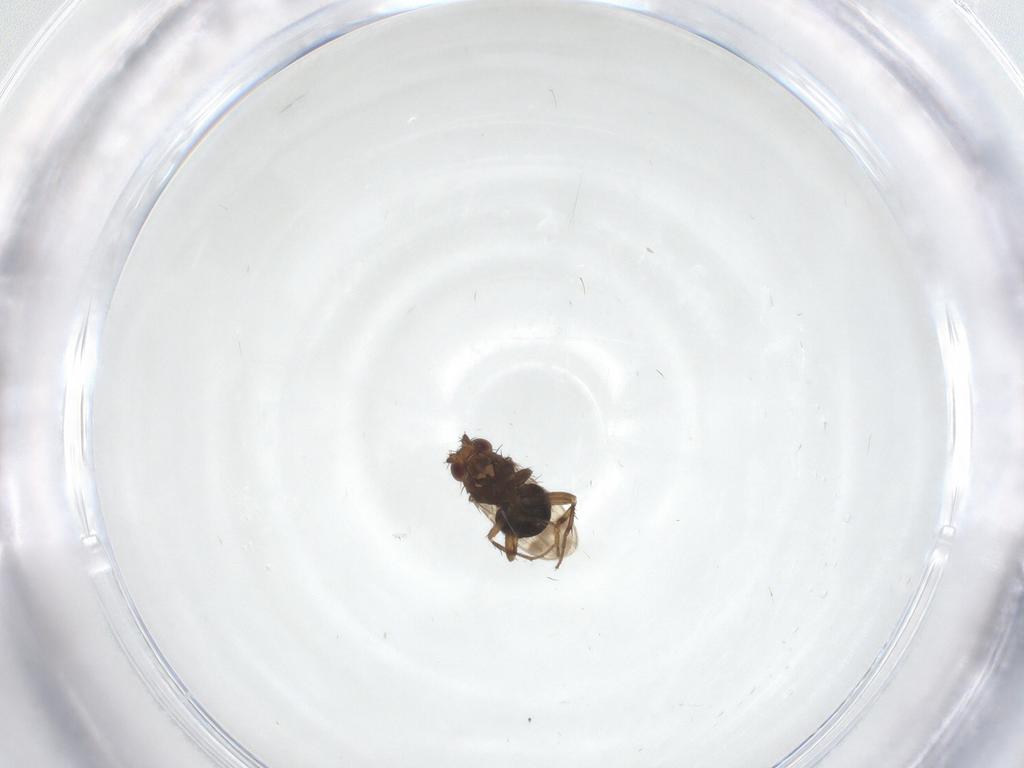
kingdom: Animalia
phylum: Arthropoda
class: Insecta
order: Diptera
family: Sphaeroceridae
